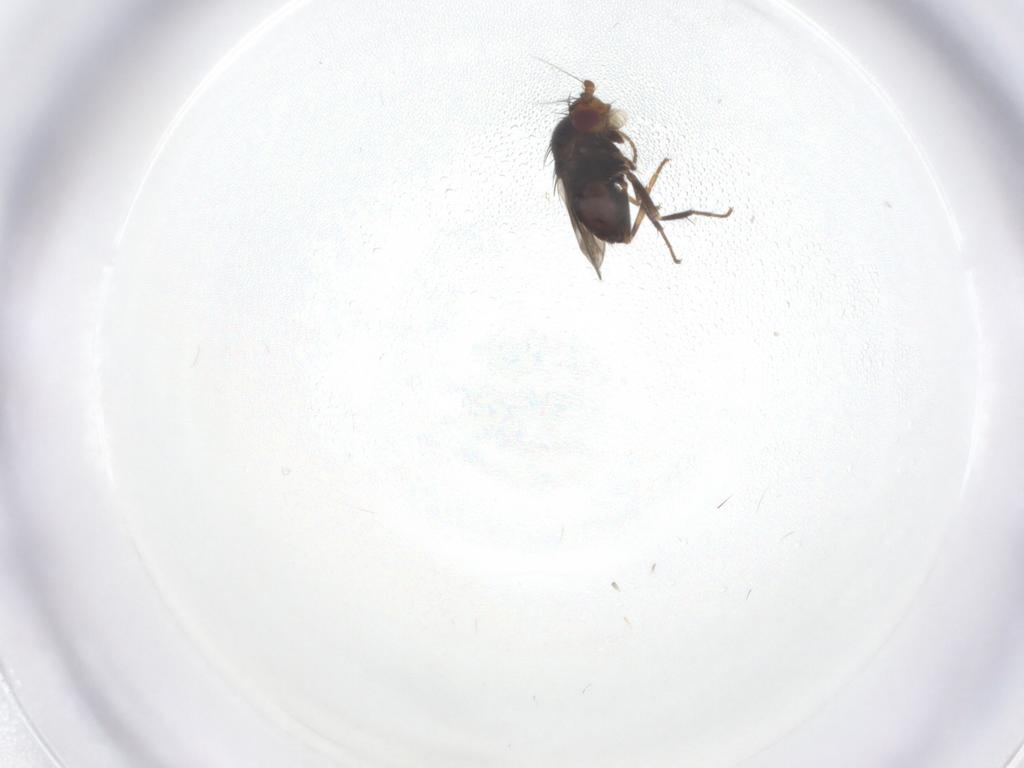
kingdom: Animalia
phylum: Arthropoda
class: Insecta
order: Diptera
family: Sphaeroceridae
